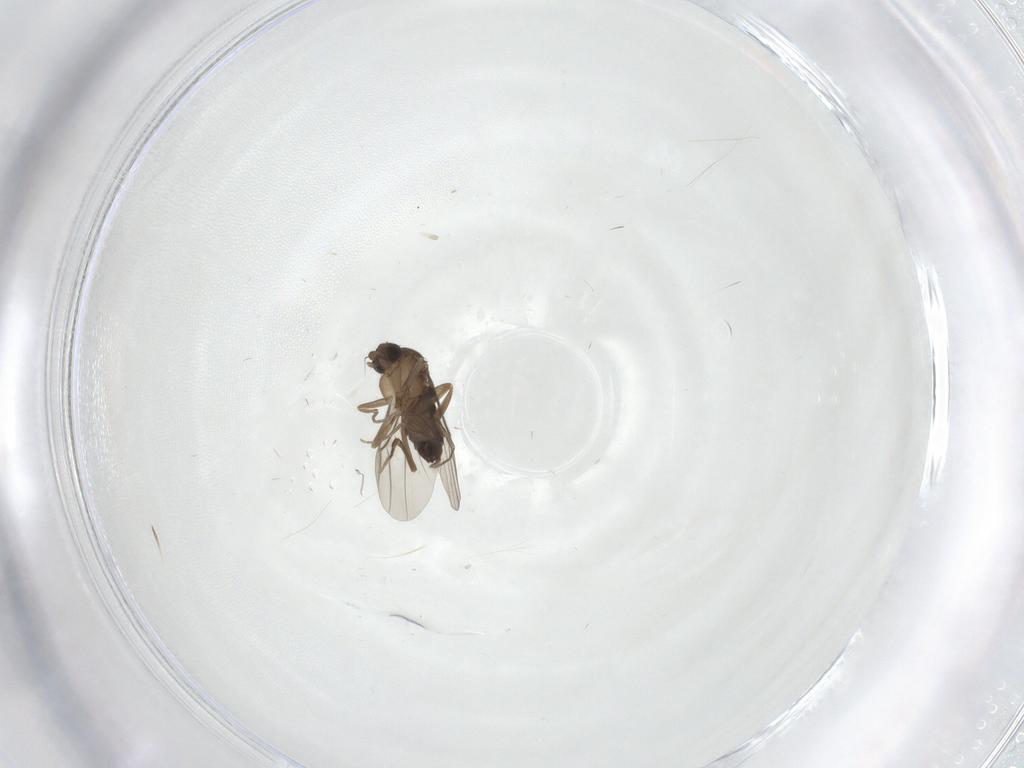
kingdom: Animalia
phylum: Arthropoda
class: Insecta
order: Diptera
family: Phoridae
